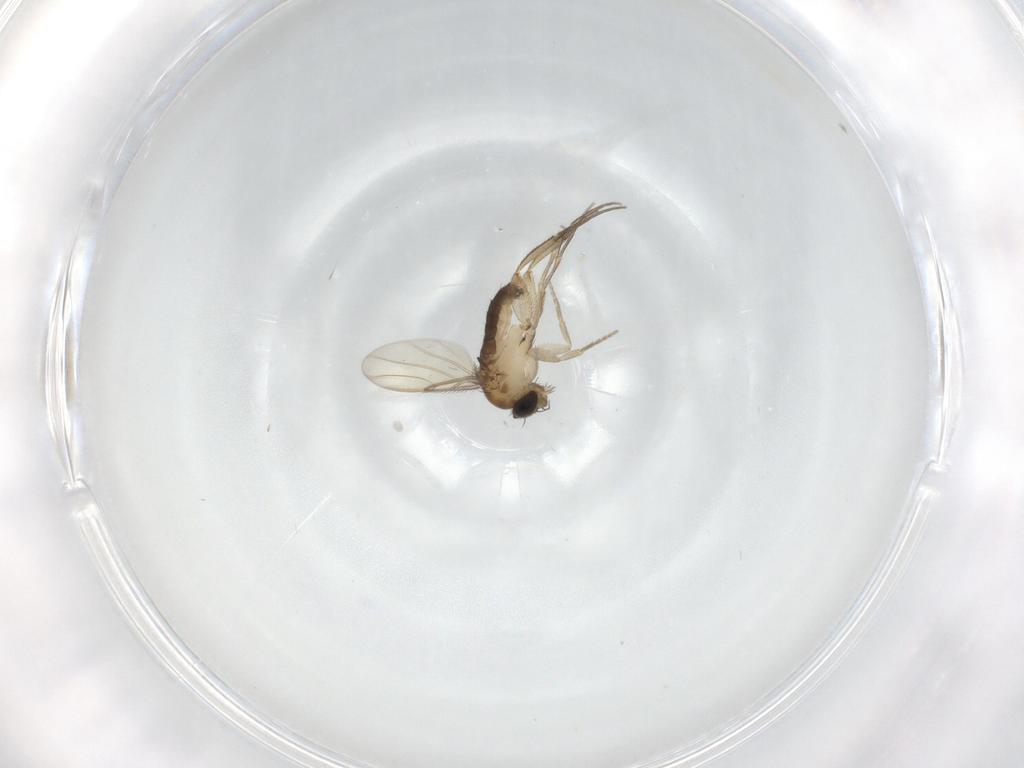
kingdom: Animalia
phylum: Arthropoda
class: Insecta
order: Diptera
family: Phoridae
